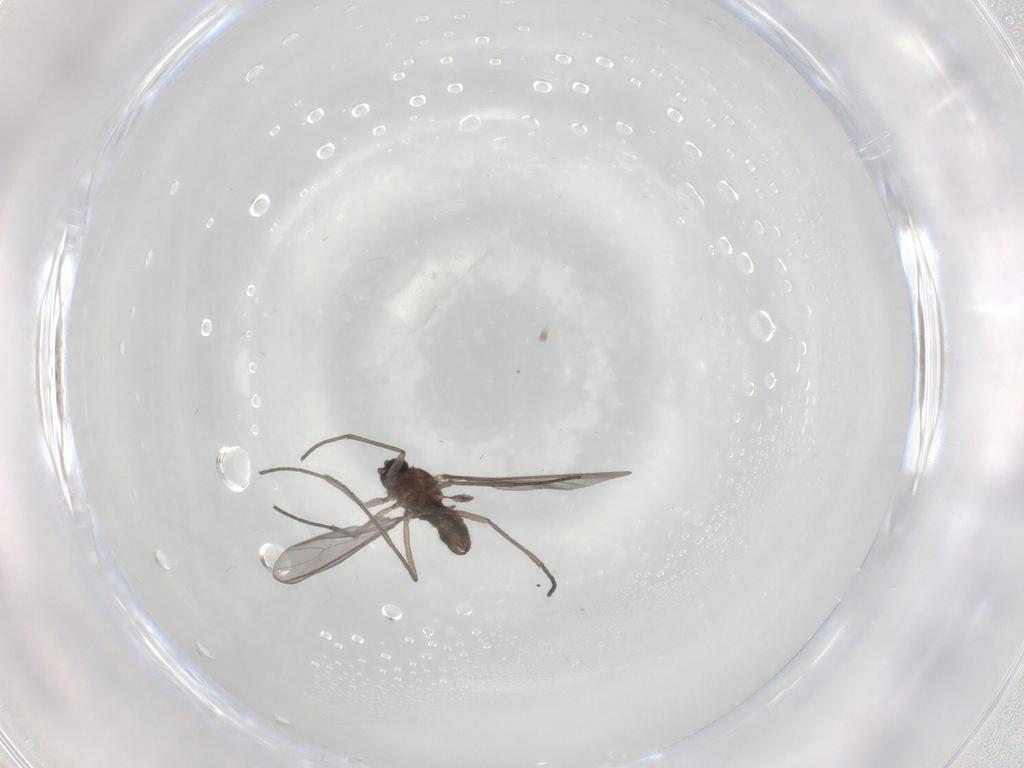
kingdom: Animalia
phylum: Arthropoda
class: Insecta
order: Diptera
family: Sciaridae
